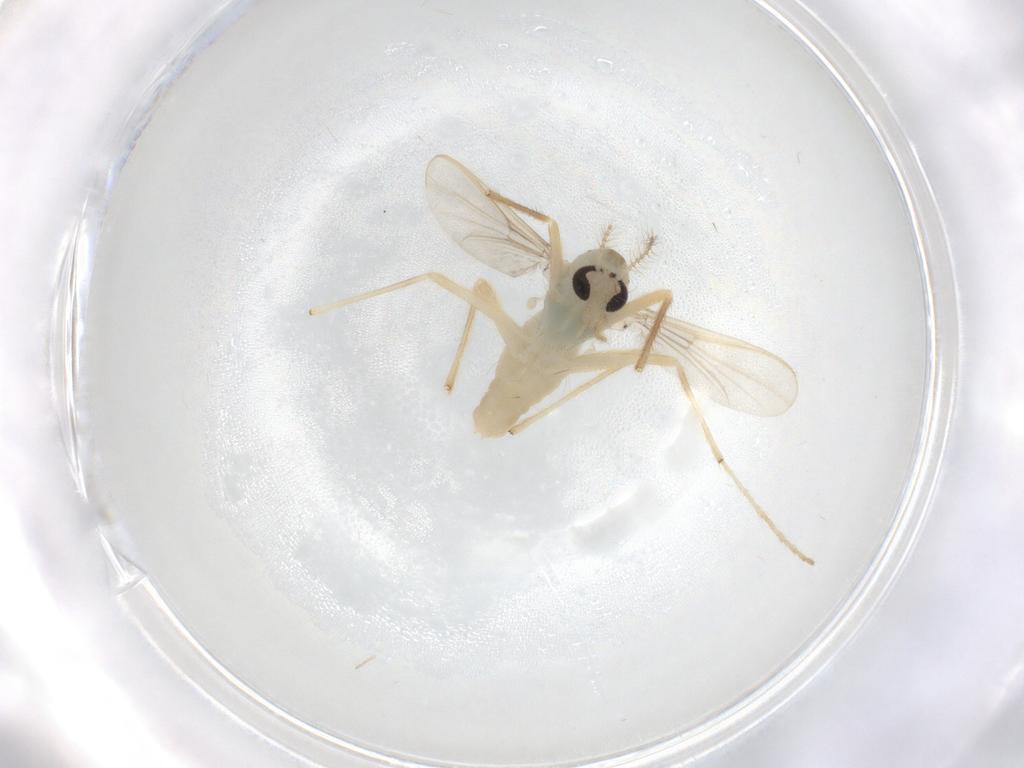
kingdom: Animalia
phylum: Arthropoda
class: Insecta
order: Diptera
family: Chironomidae
